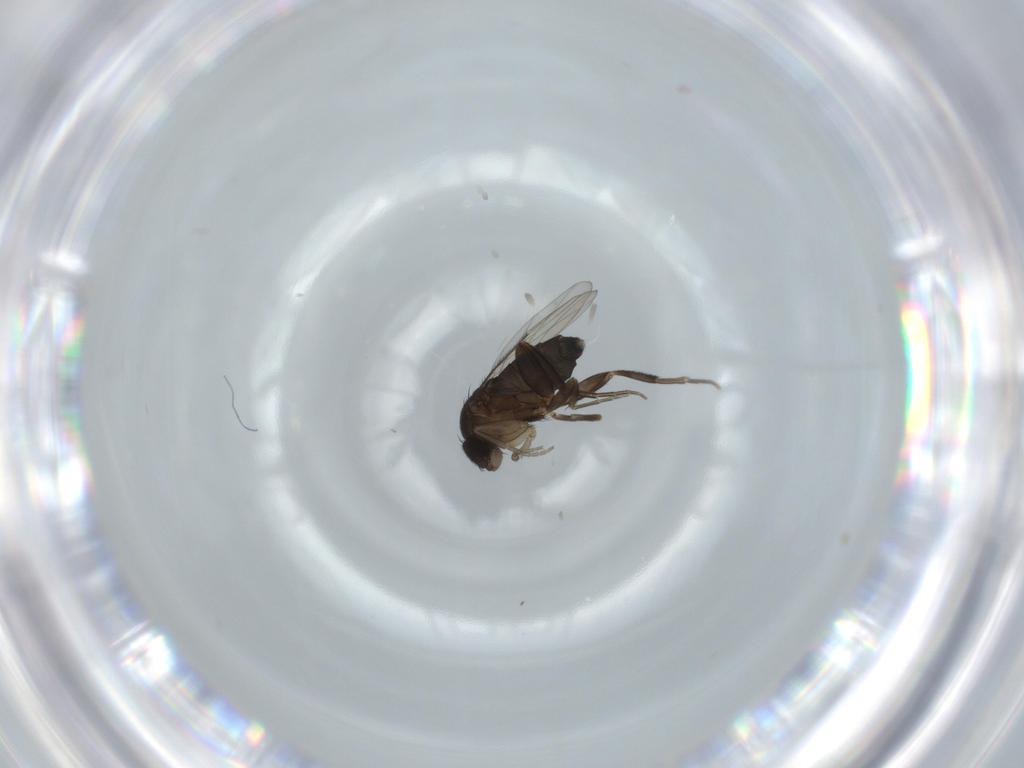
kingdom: Animalia
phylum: Arthropoda
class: Insecta
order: Diptera
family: Phoridae
